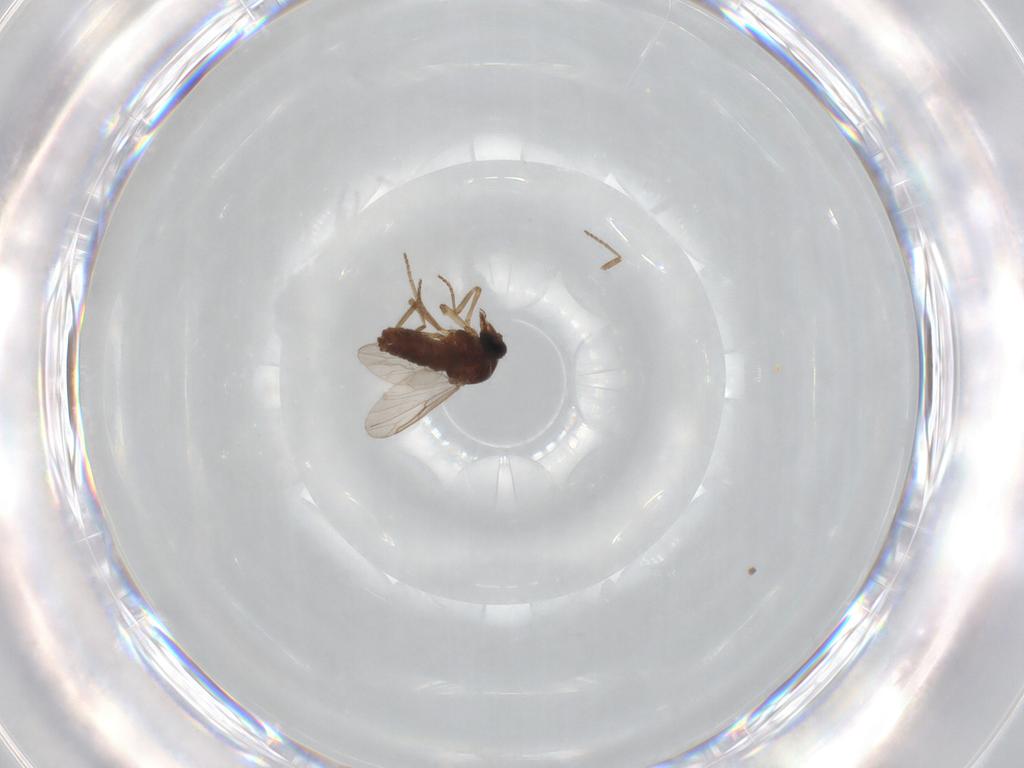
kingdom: Animalia
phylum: Arthropoda
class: Insecta
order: Diptera
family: Ceratopogonidae
